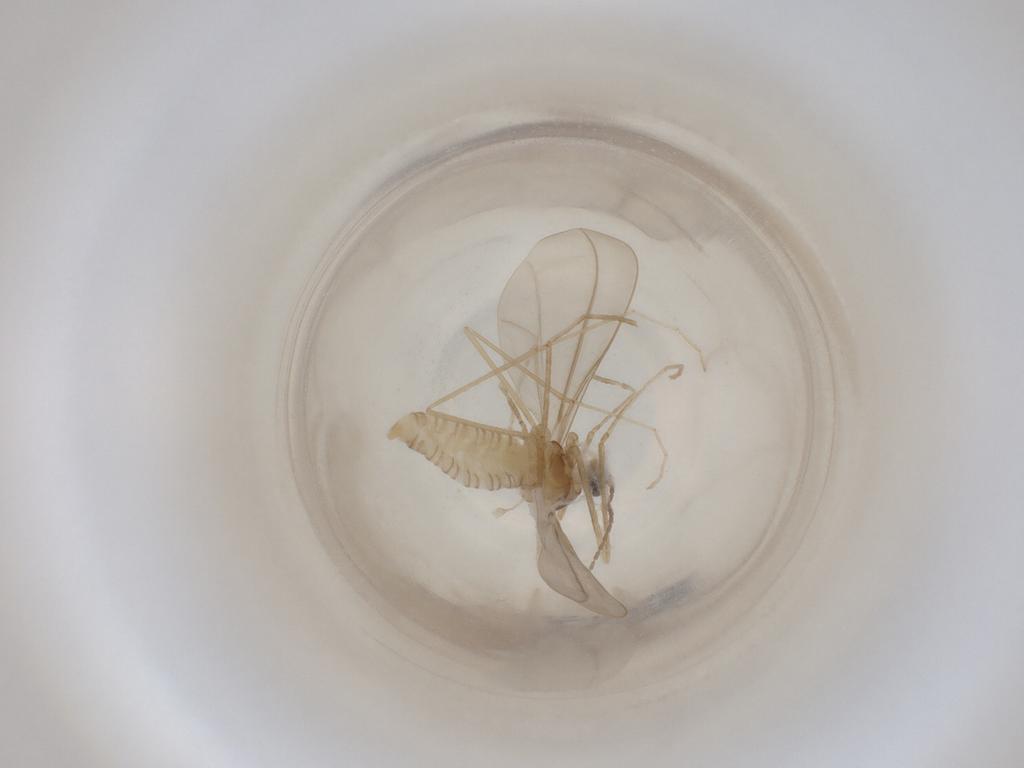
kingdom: Animalia
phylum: Arthropoda
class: Insecta
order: Diptera
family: Cecidomyiidae
